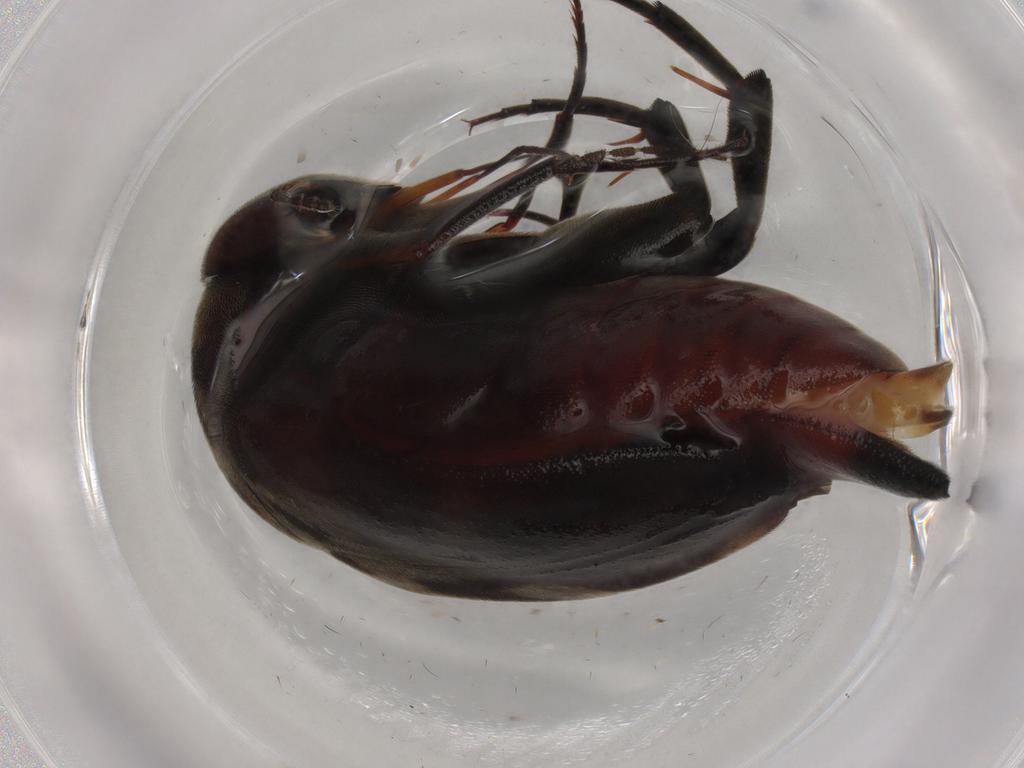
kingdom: Animalia
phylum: Arthropoda
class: Insecta
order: Coleoptera
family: Mordellidae
